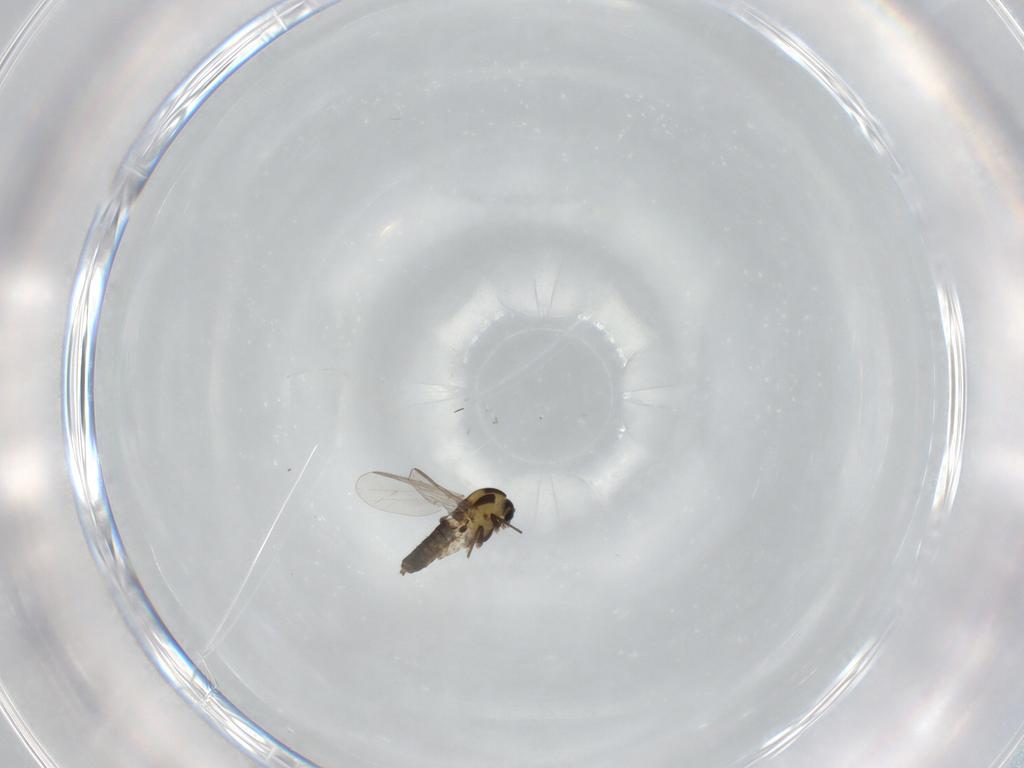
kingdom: Animalia
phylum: Arthropoda
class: Insecta
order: Diptera
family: Chironomidae
